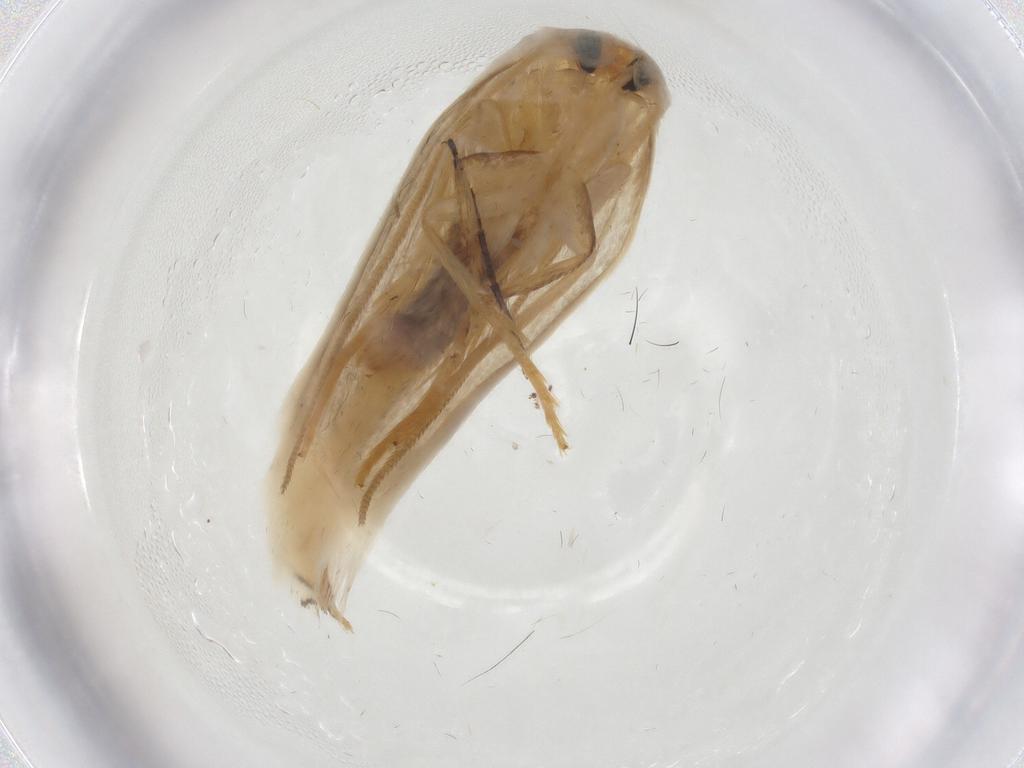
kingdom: Animalia
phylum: Arthropoda
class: Insecta
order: Lepidoptera
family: Opostegidae
